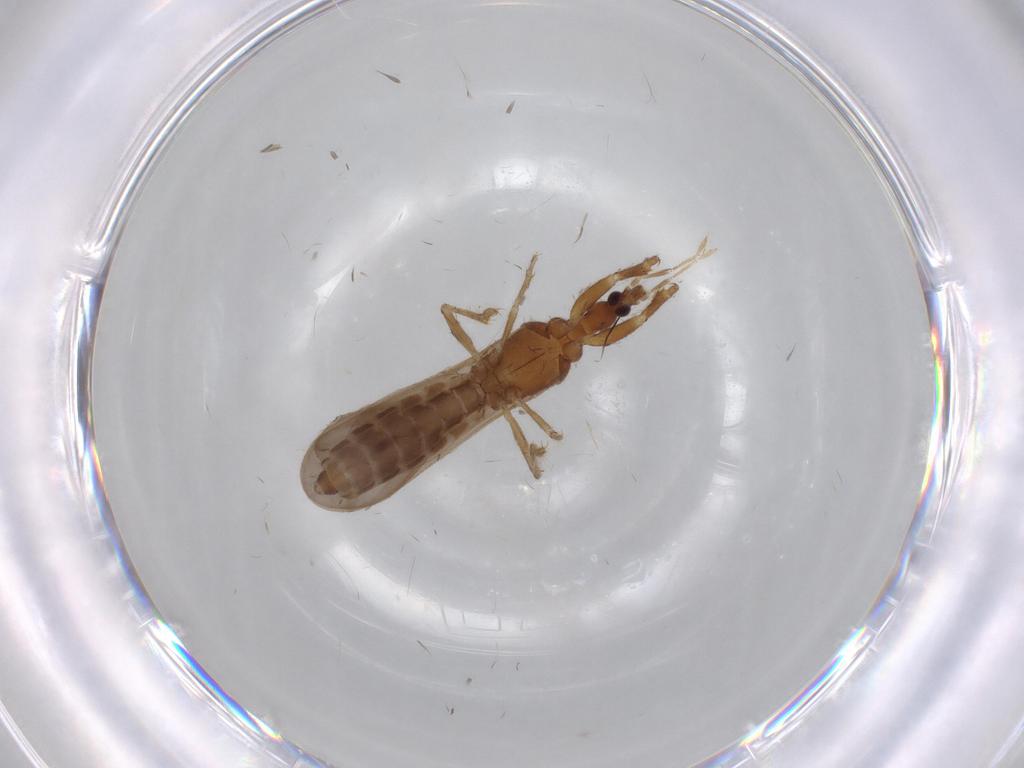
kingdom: Animalia
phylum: Arthropoda
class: Insecta
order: Hemiptera
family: Enicocephalidae
